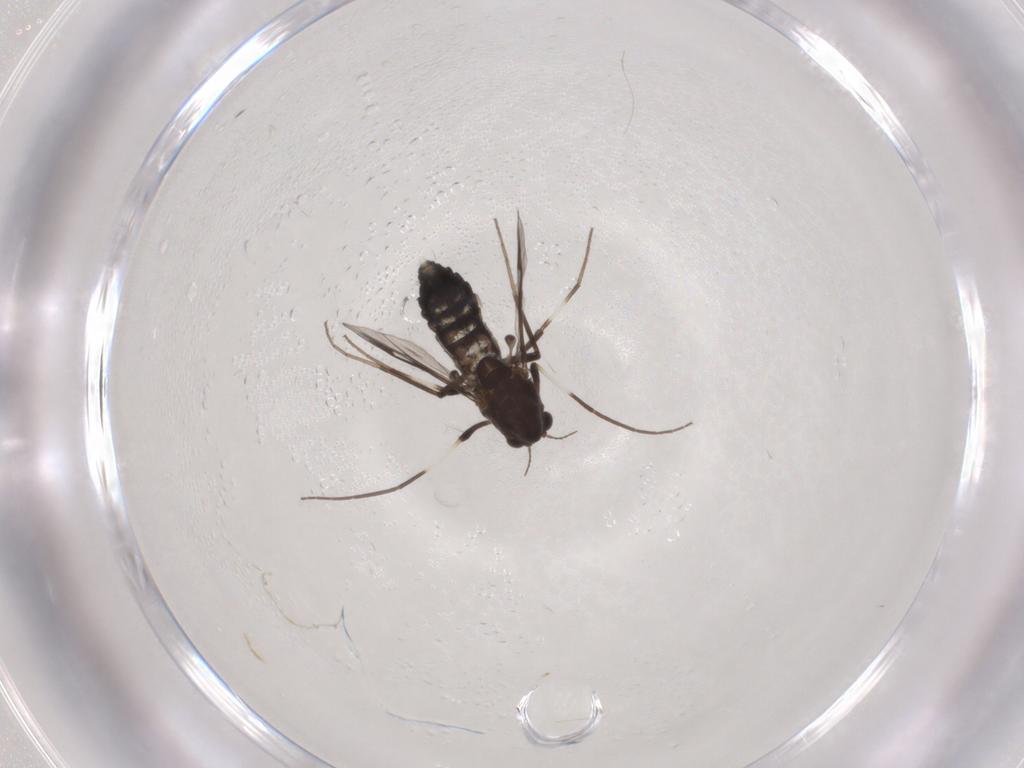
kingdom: Animalia
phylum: Arthropoda
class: Insecta
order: Diptera
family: Chironomidae
